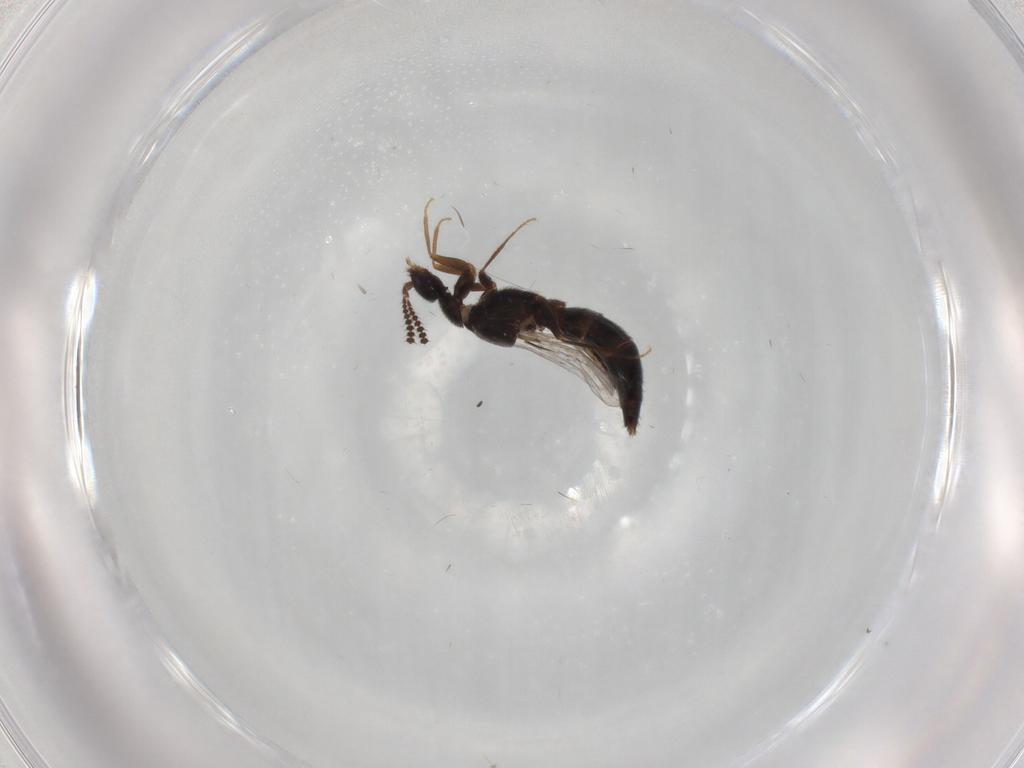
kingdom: Animalia
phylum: Arthropoda
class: Insecta
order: Coleoptera
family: Staphylinidae
